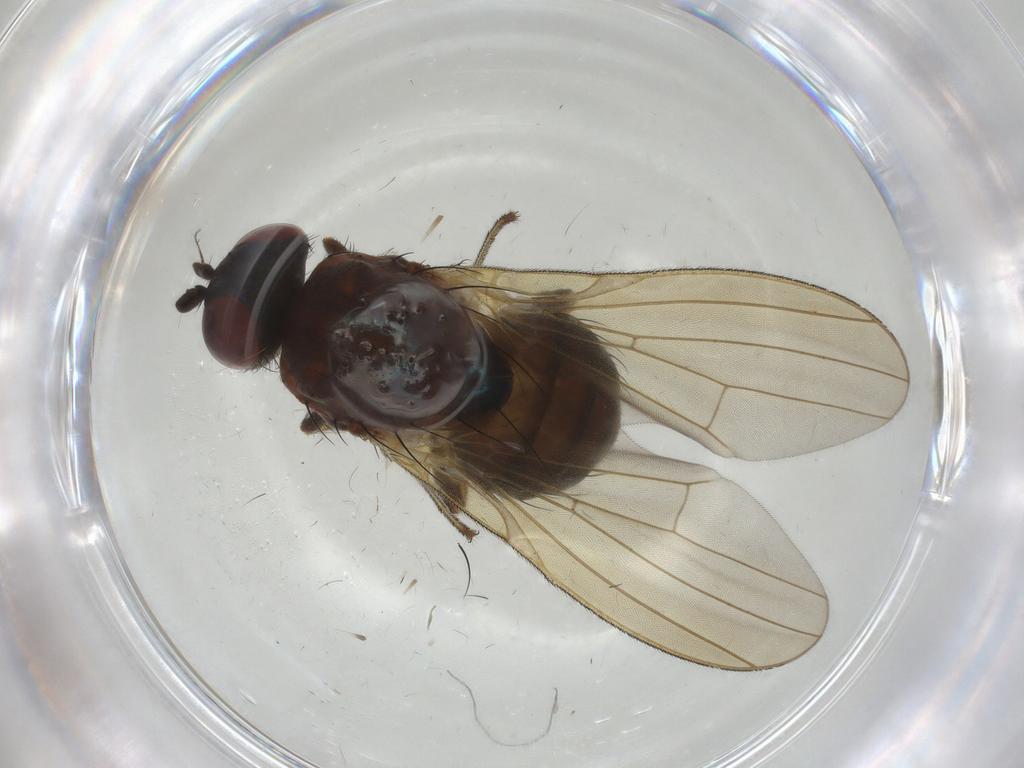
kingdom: Animalia
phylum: Arthropoda
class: Insecta
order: Diptera
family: Lauxaniidae
